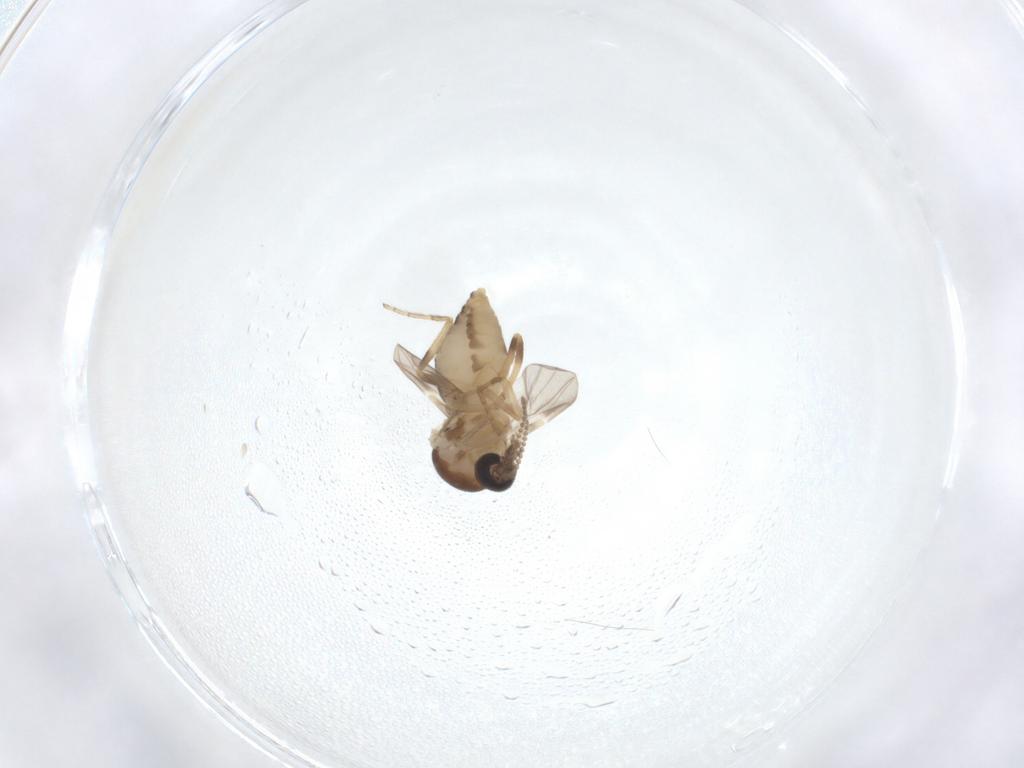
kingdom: Animalia
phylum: Arthropoda
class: Insecta
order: Diptera
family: Ceratopogonidae
